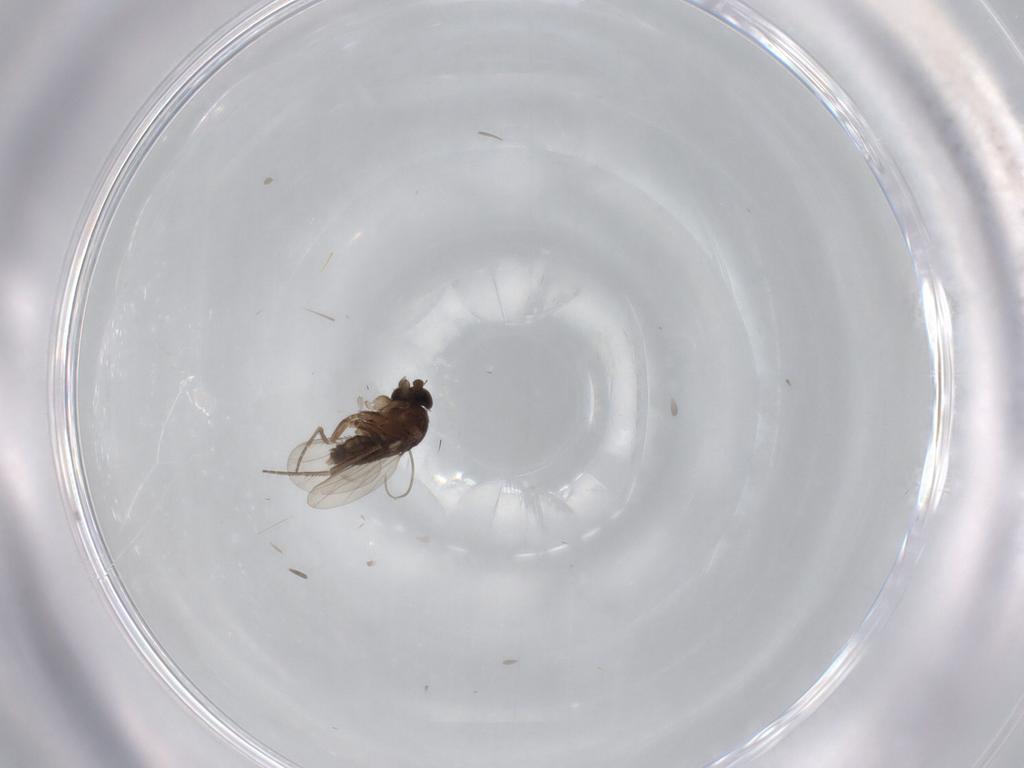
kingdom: Animalia
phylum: Arthropoda
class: Insecta
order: Diptera
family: Cecidomyiidae
